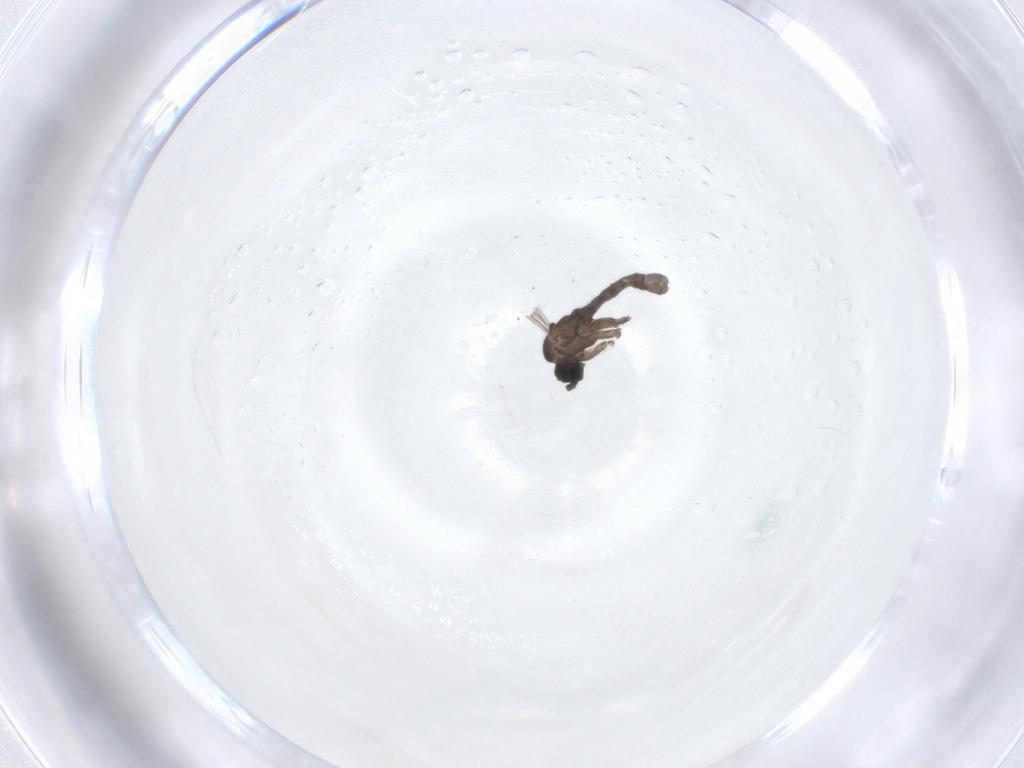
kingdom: Animalia
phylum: Arthropoda
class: Insecta
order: Diptera
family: Sciaridae
